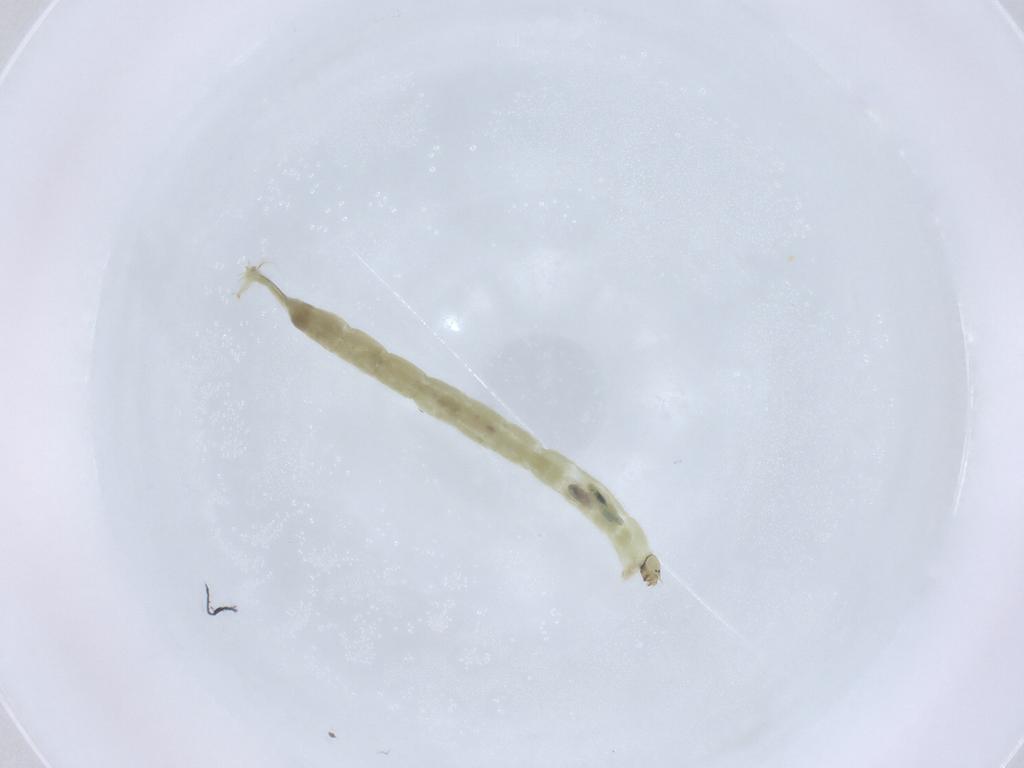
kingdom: Animalia
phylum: Arthropoda
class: Insecta
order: Diptera
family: Chironomidae
